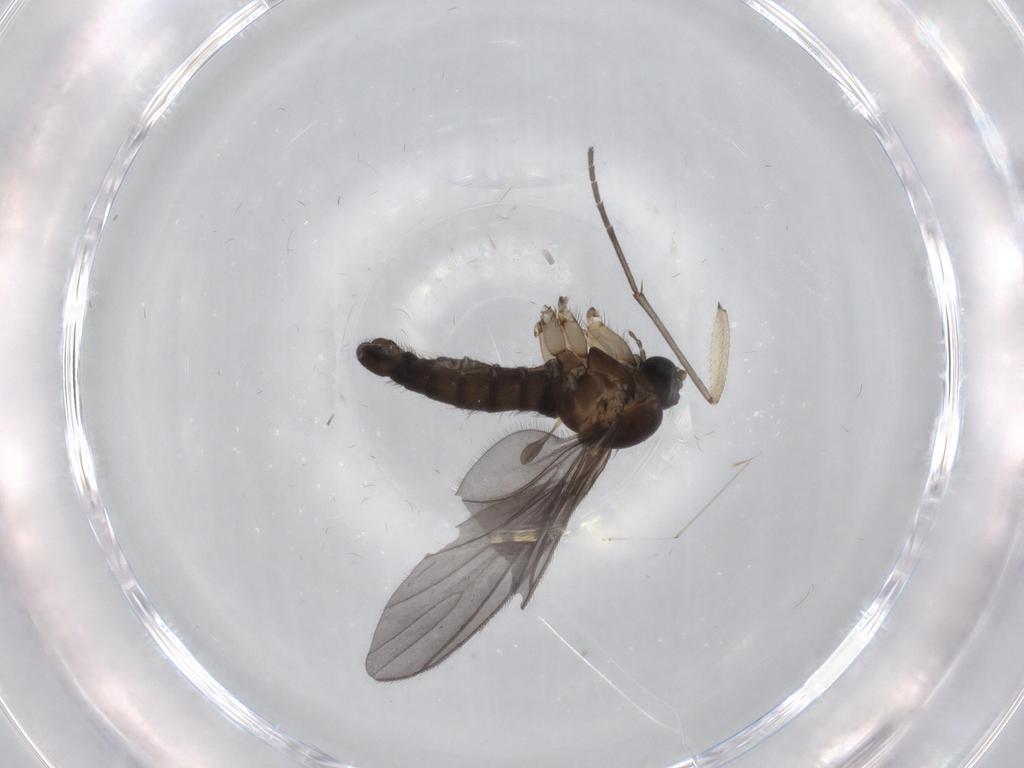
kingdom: Animalia
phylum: Arthropoda
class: Insecta
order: Diptera
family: Sciaridae
